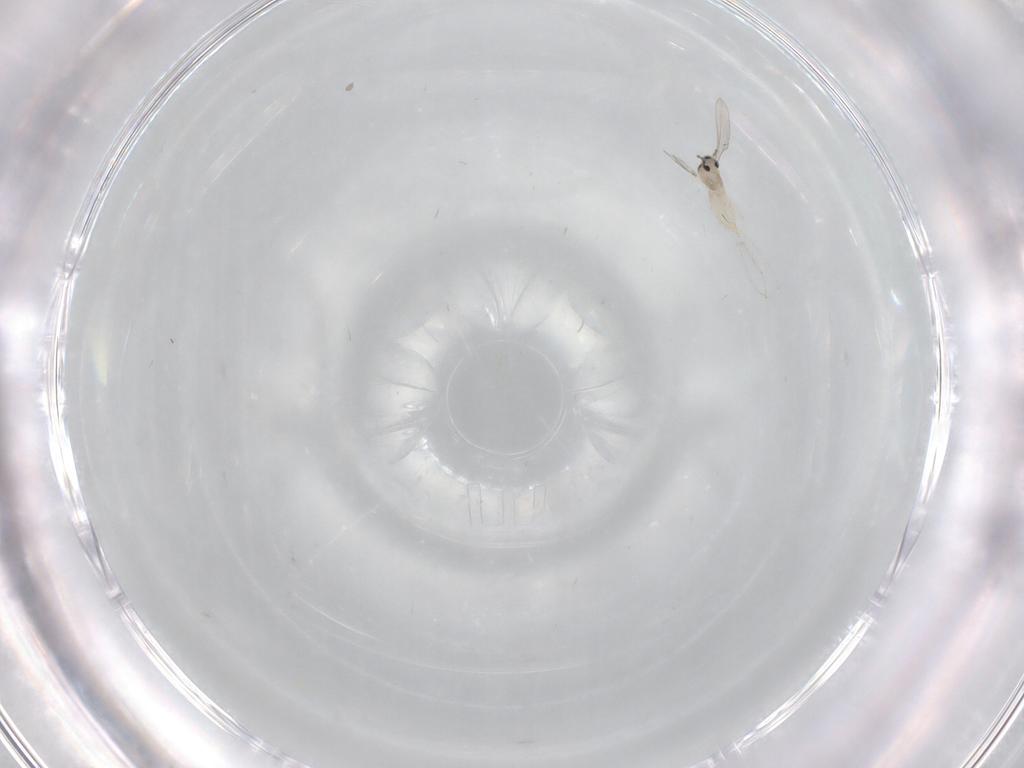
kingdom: Animalia
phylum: Arthropoda
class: Insecta
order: Diptera
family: Cecidomyiidae
